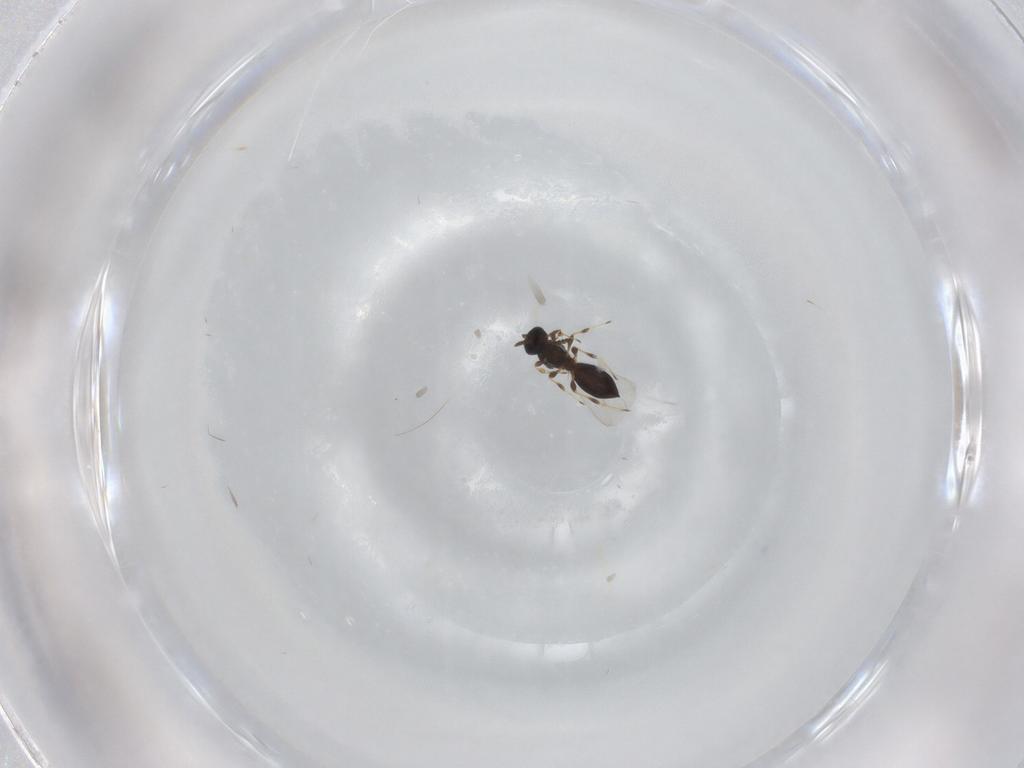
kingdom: Animalia
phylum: Arthropoda
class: Insecta
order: Hymenoptera
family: Platygastridae
